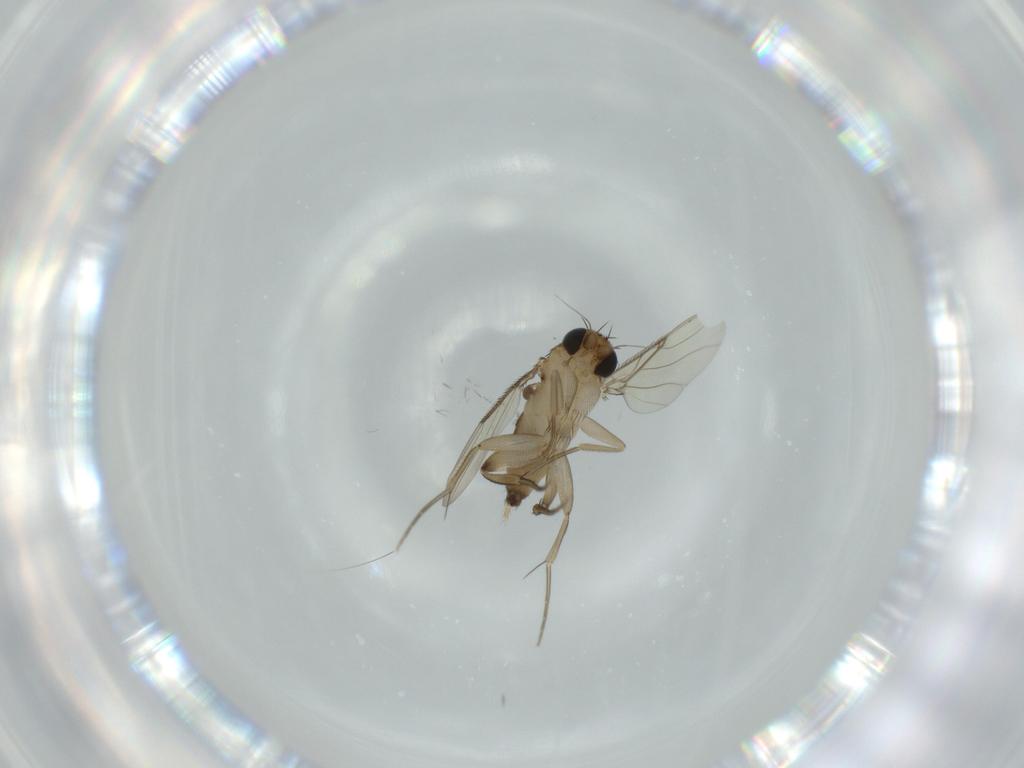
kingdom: Animalia
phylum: Arthropoda
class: Insecta
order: Diptera
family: Phoridae
